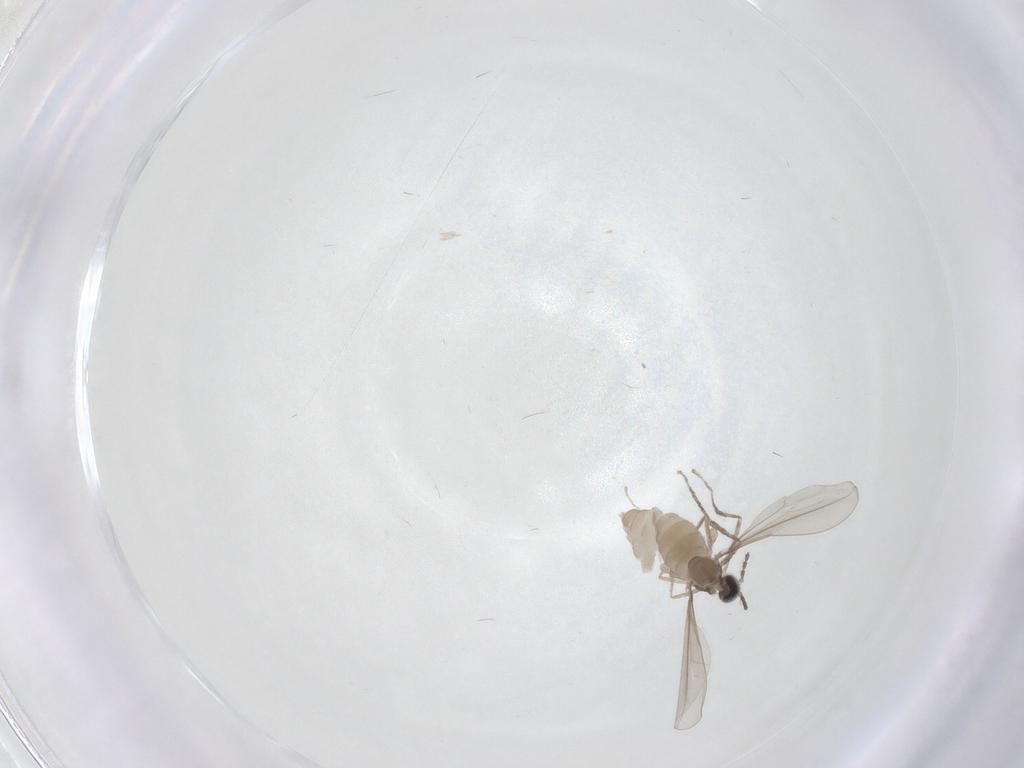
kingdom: Animalia
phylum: Arthropoda
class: Insecta
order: Diptera
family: Cecidomyiidae
